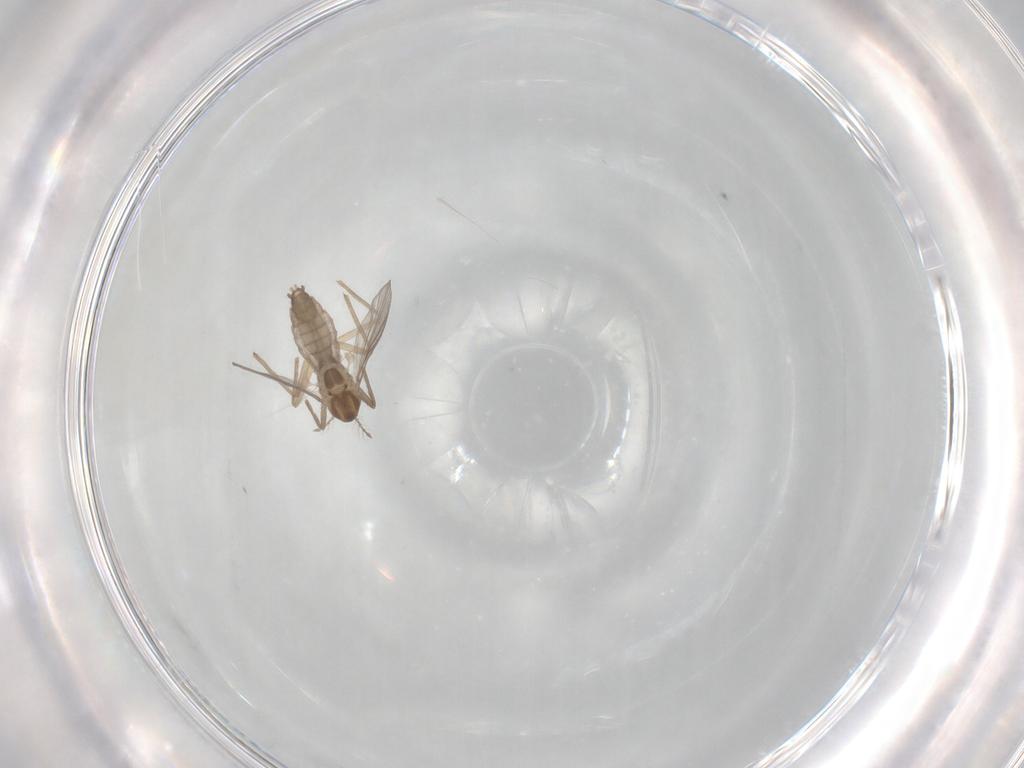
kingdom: Animalia
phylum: Arthropoda
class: Insecta
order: Diptera
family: Chironomidae
